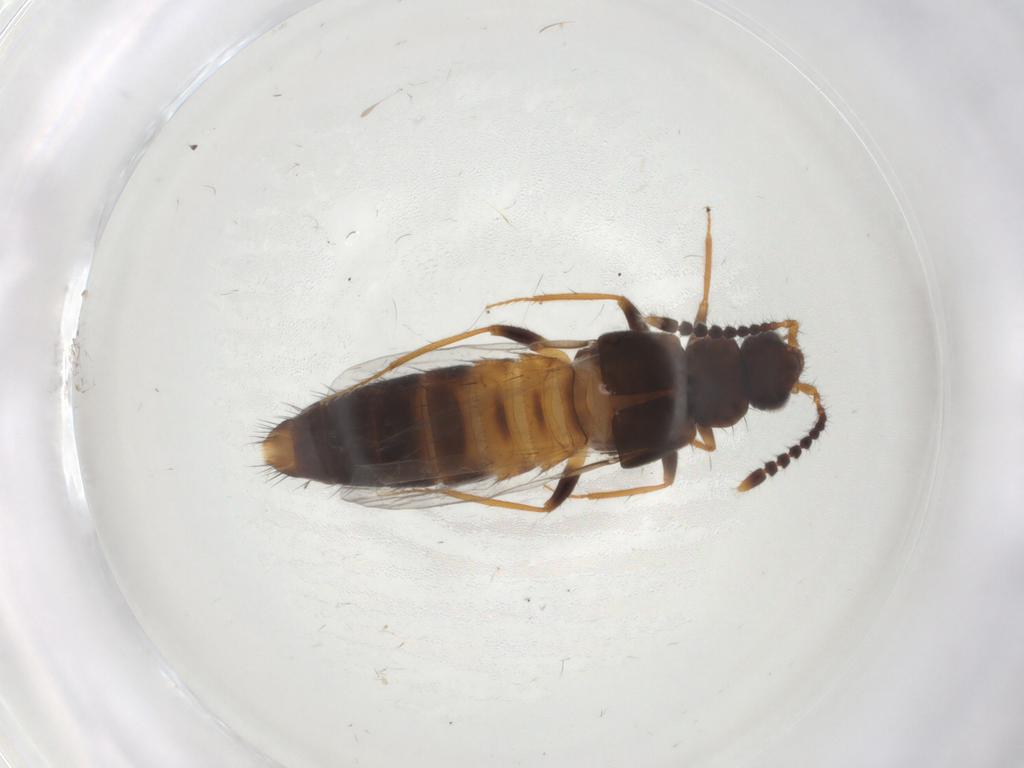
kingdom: Animalia
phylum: Arthropoda
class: Insecta
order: Coleoptera
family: Staphylinidae
